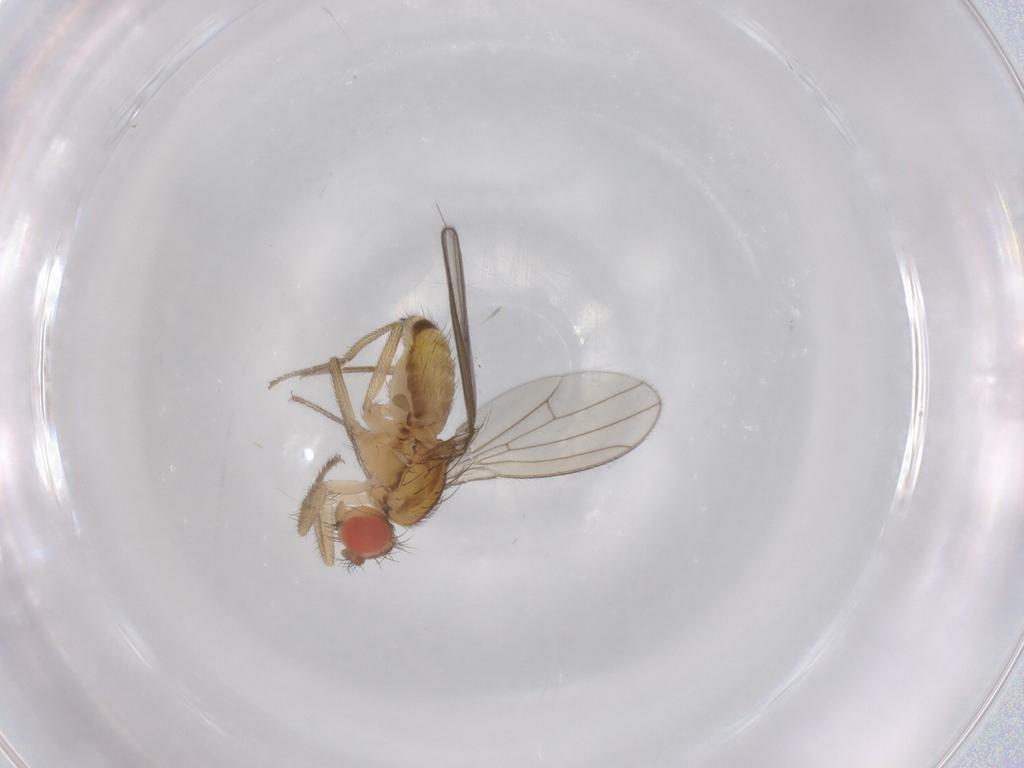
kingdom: Animalia
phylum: Arthropoda
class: Insecta
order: Diptera
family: Drosophilidae
